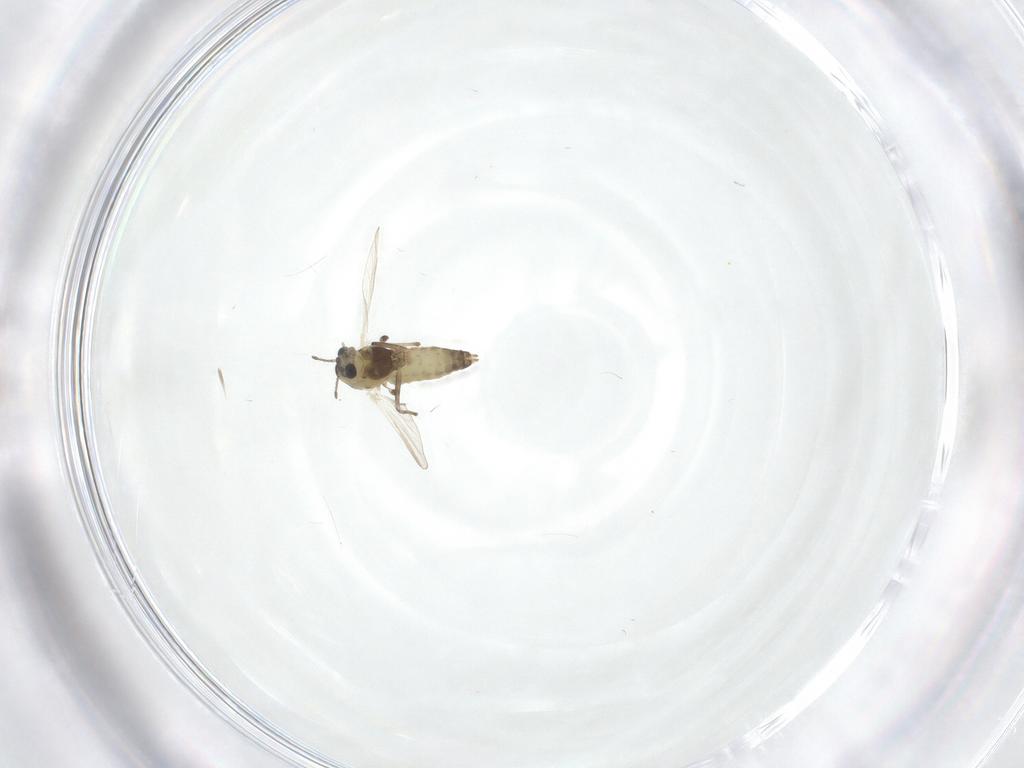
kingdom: Animalia
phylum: Arthropoda
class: Insecta
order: Diptera
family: Chironomidae
